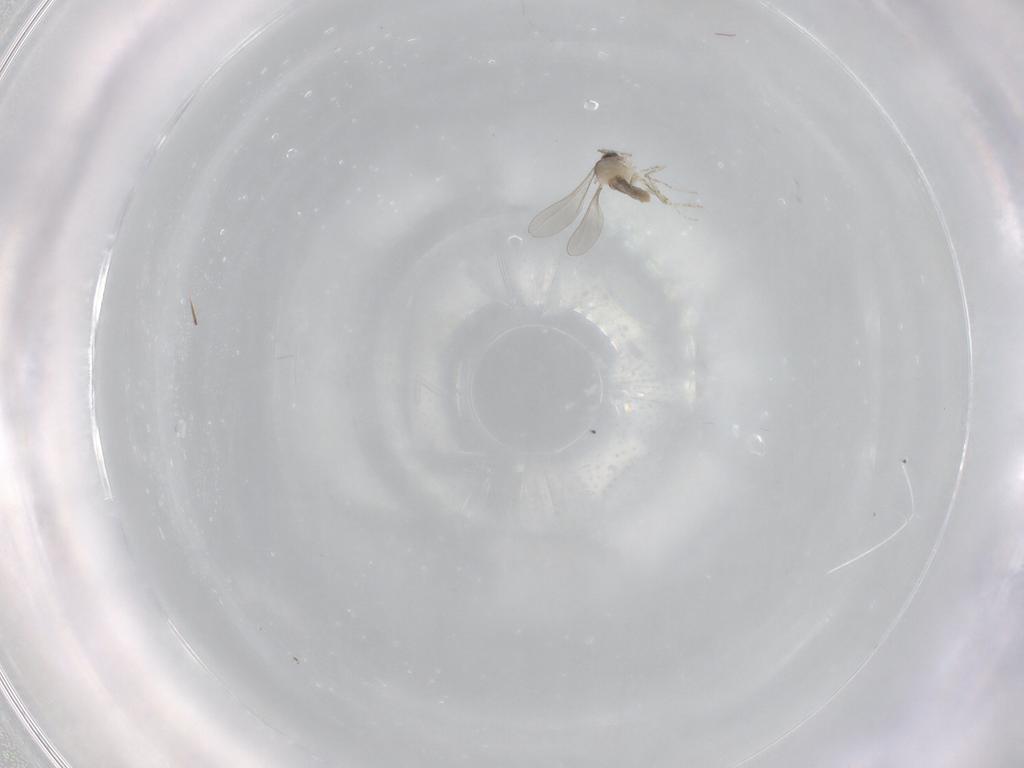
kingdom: Animalia
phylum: Arthropoda
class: Insecta
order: Diptera
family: Cecidomyiidae
